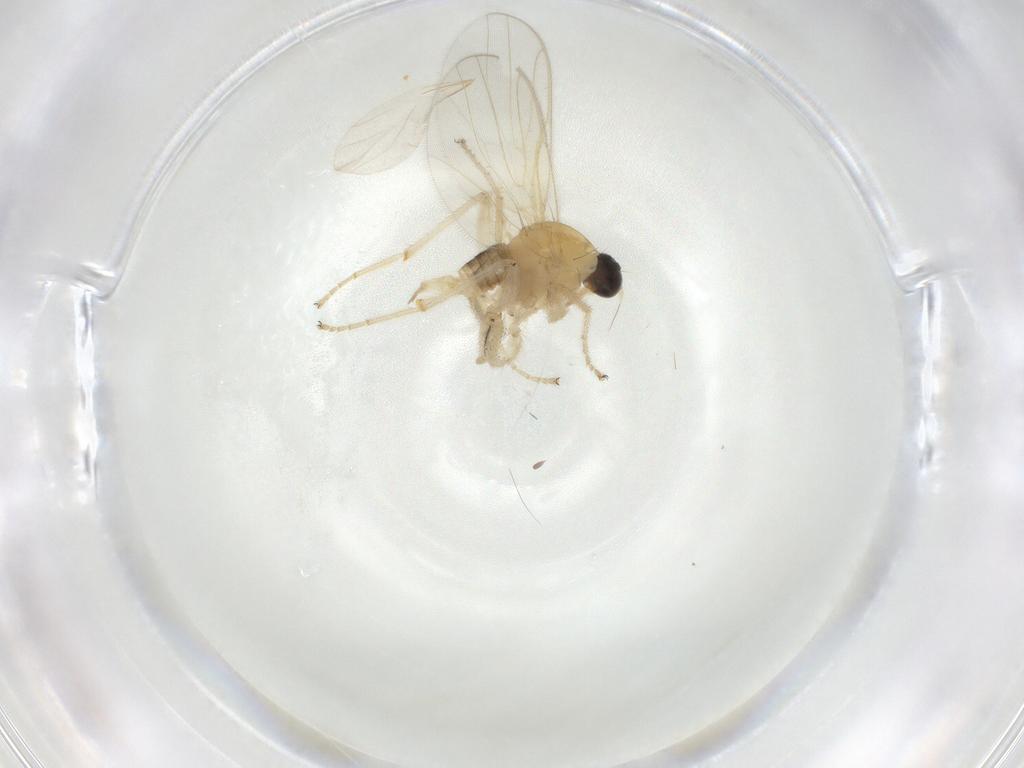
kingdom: Animalia
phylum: Arthropoda
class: Insecta
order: Diptera
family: Hybotidae
